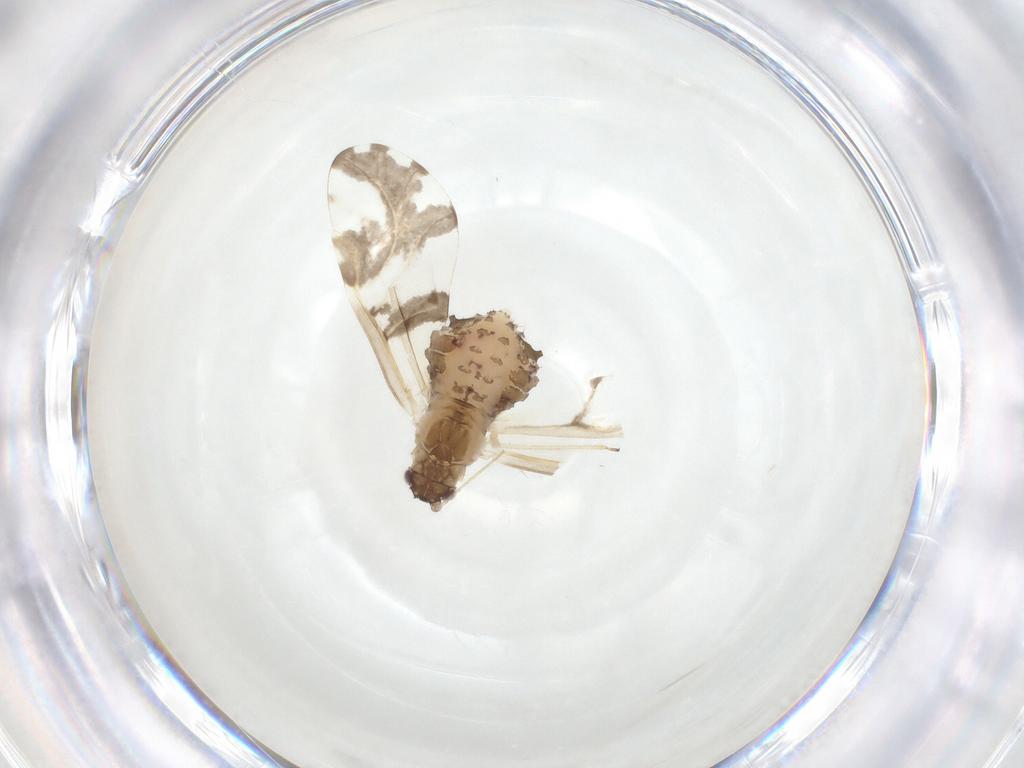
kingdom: Animalia
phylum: Arthropoda
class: Insecta
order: Hemiptera
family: Aphididae
